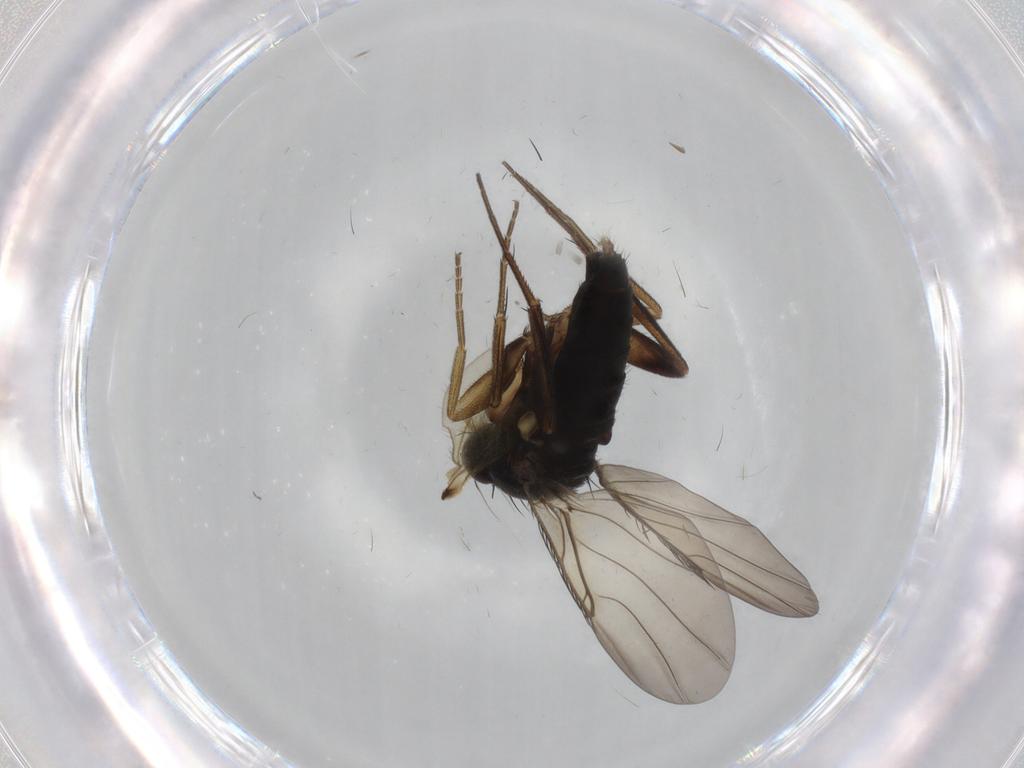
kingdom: Animalia
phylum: Arthropoda
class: Insecta
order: Diptera
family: Phoridae
